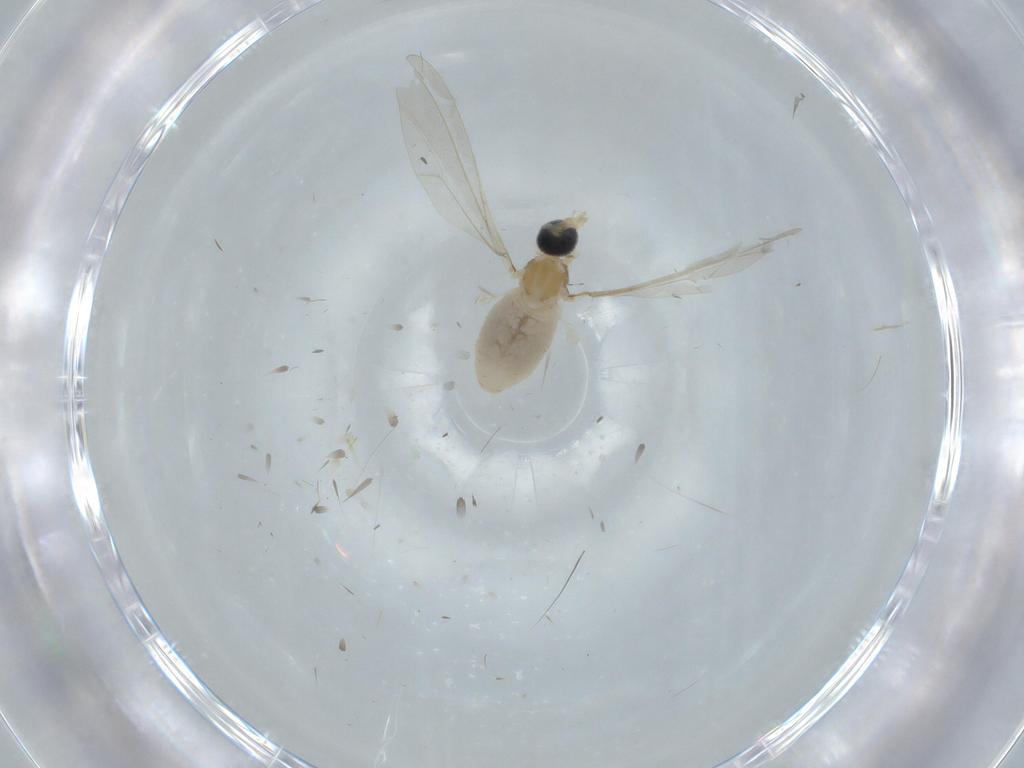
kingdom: Animalia
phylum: Arthropoda
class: Insecta
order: Diptera
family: Cecidomyiidae
